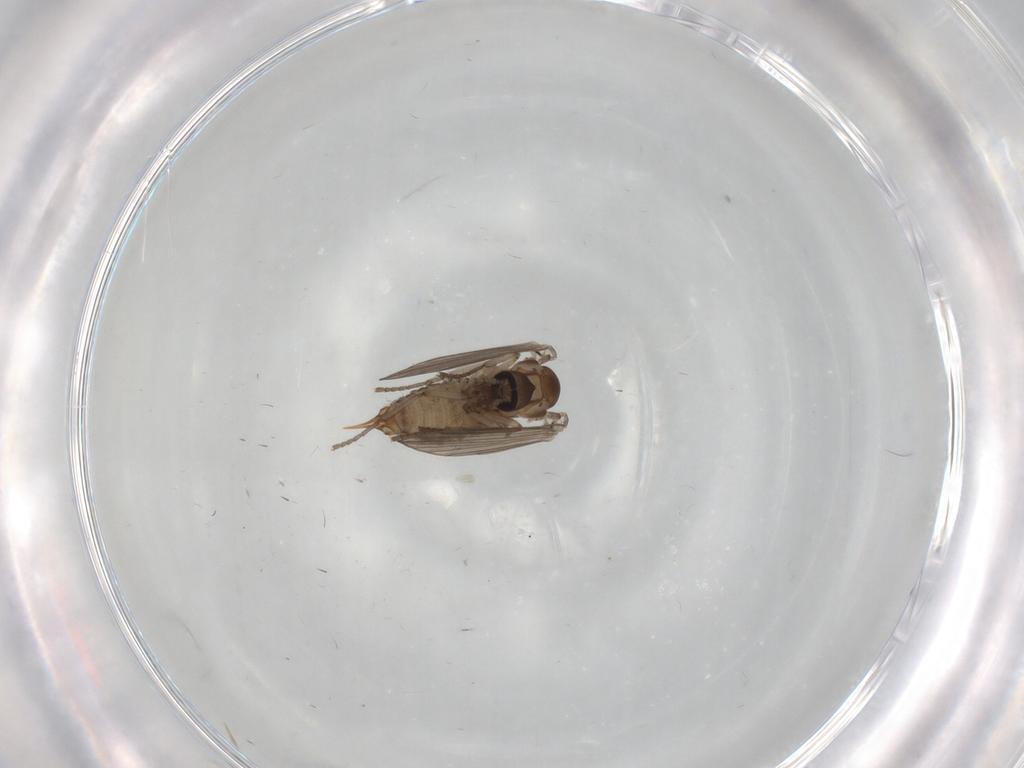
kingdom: Animalia
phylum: Arthropoda
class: Insecta
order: Diptera
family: Psychodidae
